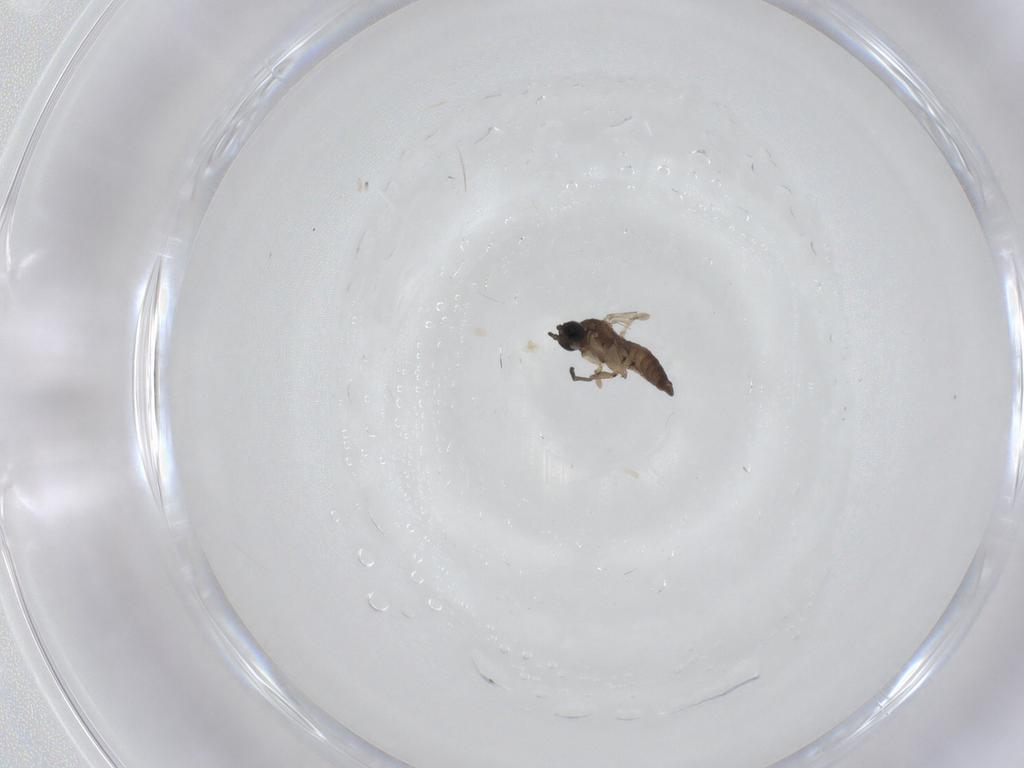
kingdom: Animalia
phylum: Arthropoda
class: Insecta
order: Diptera
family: Sciaridae
